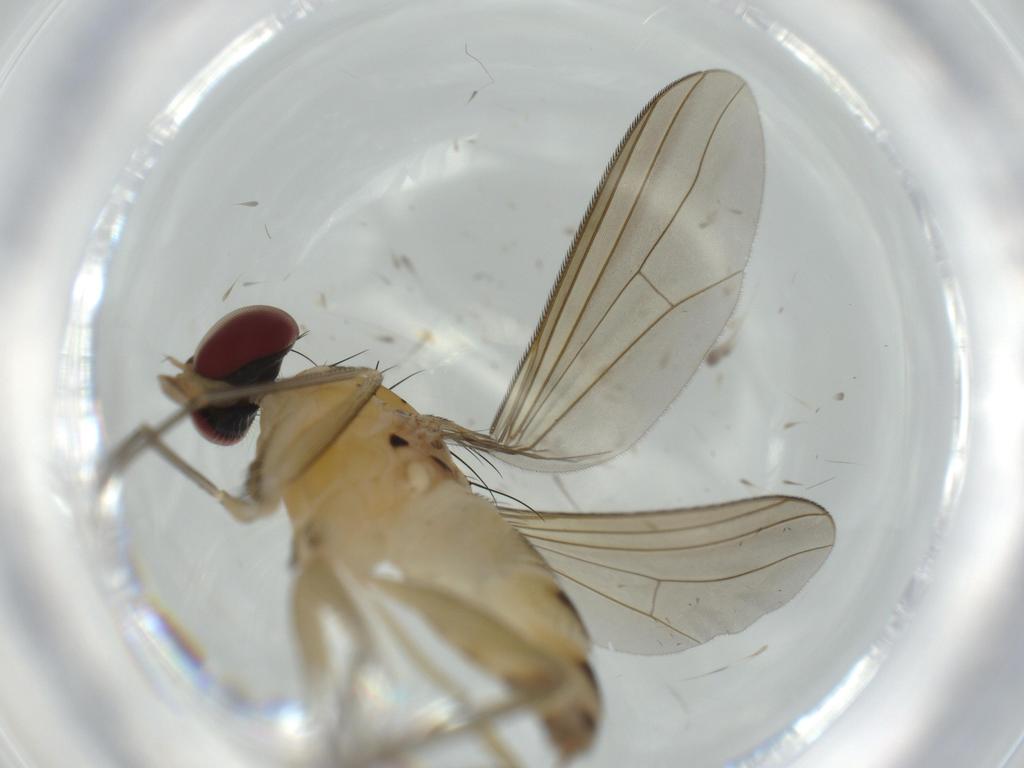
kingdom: Animalia
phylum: Arthropoda
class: Insecta
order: Diptera
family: Dolichopodidae
